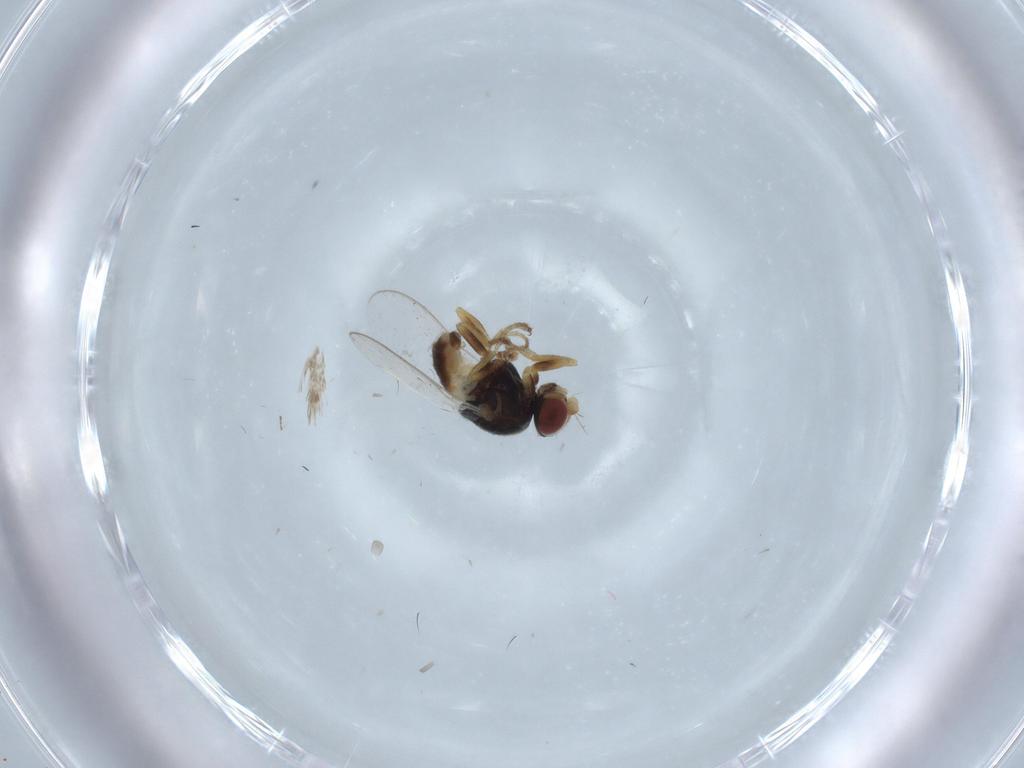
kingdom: Animalia
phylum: Arthropoda
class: Insecta
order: Diptera
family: Chloropidae
